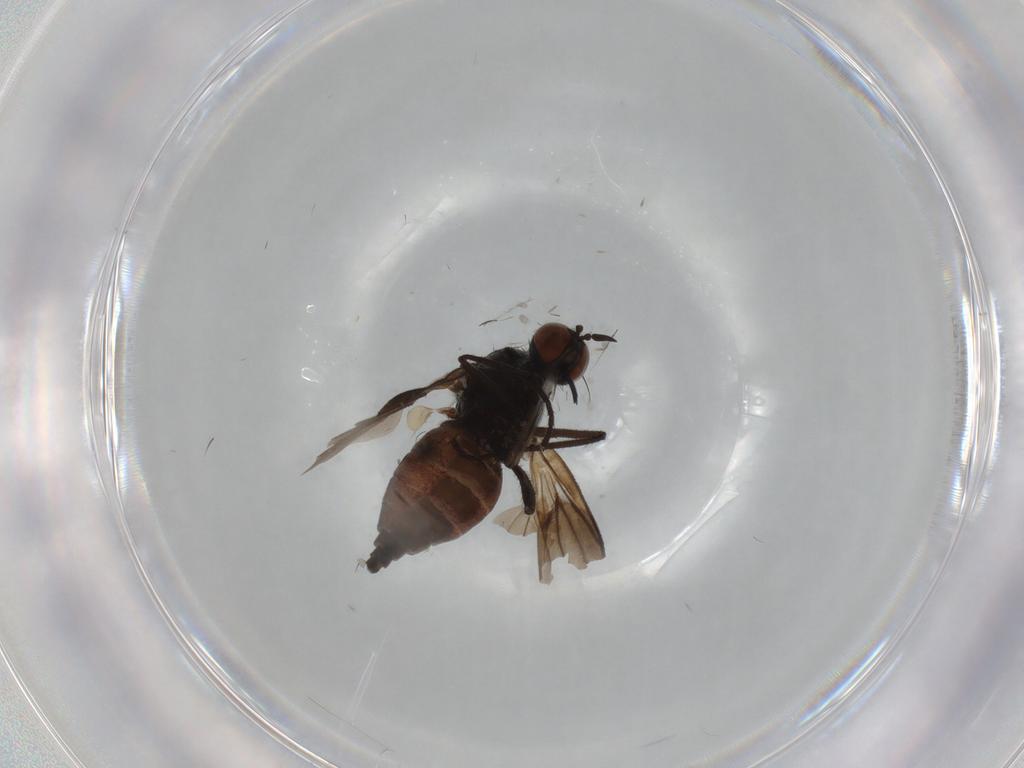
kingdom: Animalia
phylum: Arthropoda
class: Insecta
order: Diptera
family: Empididae
